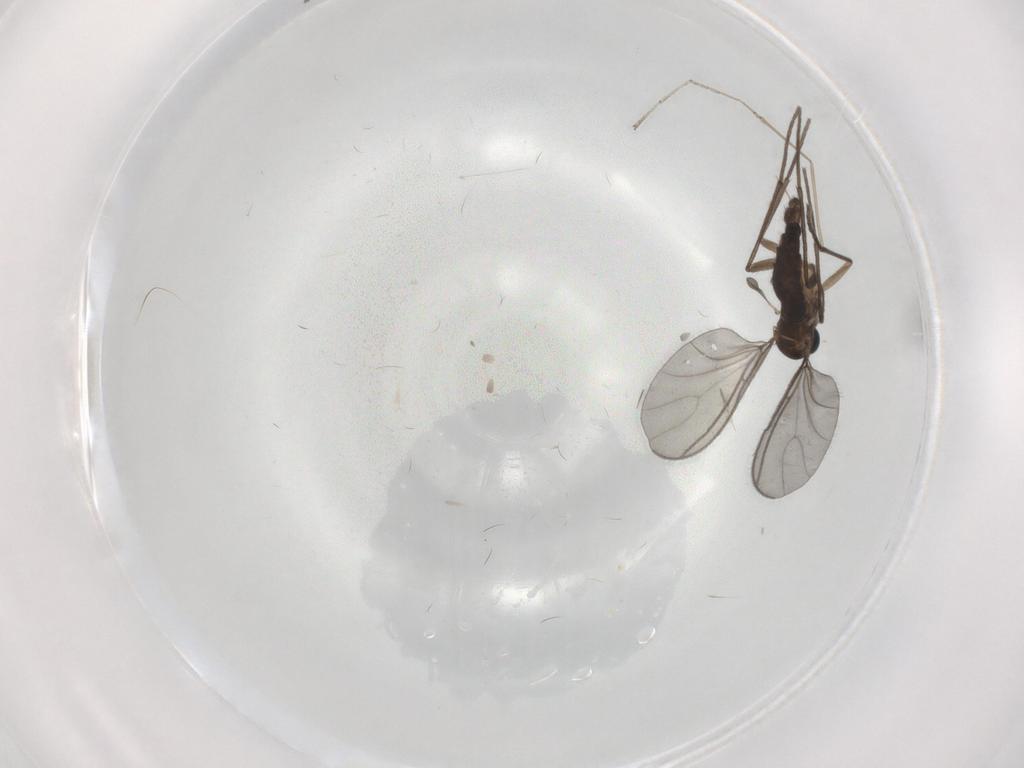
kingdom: Animalia
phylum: Arthropoda
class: Insecta
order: Diptera
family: Sciaridae
